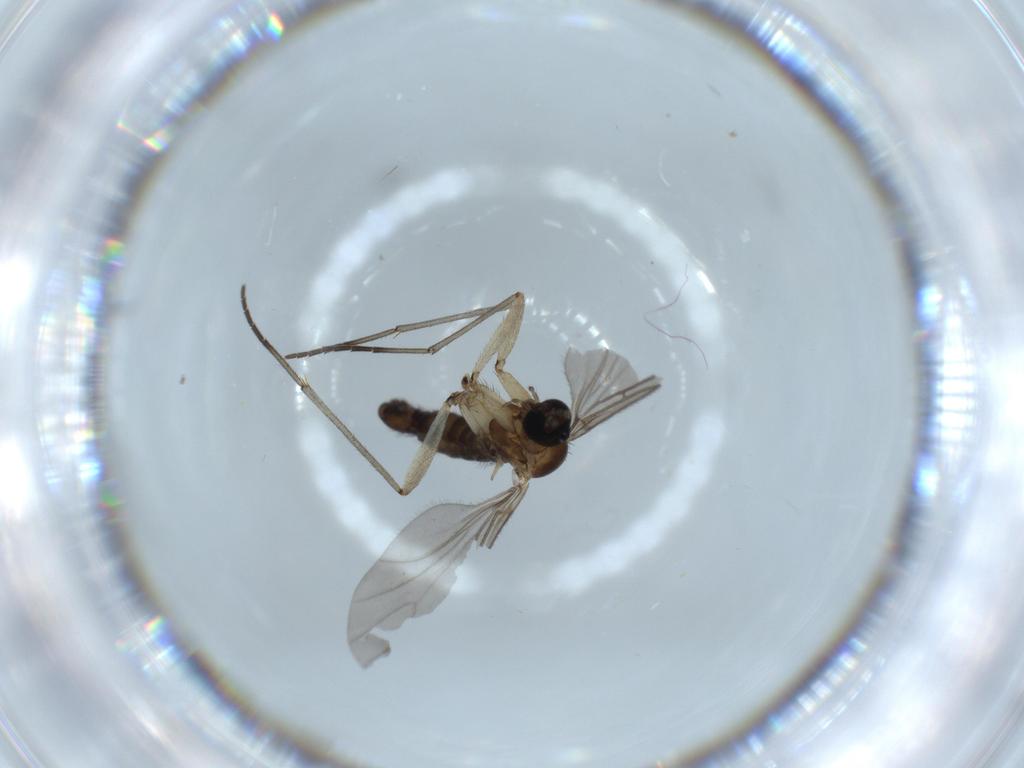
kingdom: Animalia
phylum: Arthropoda
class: Insecta
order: Diptera
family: Sciaridae
